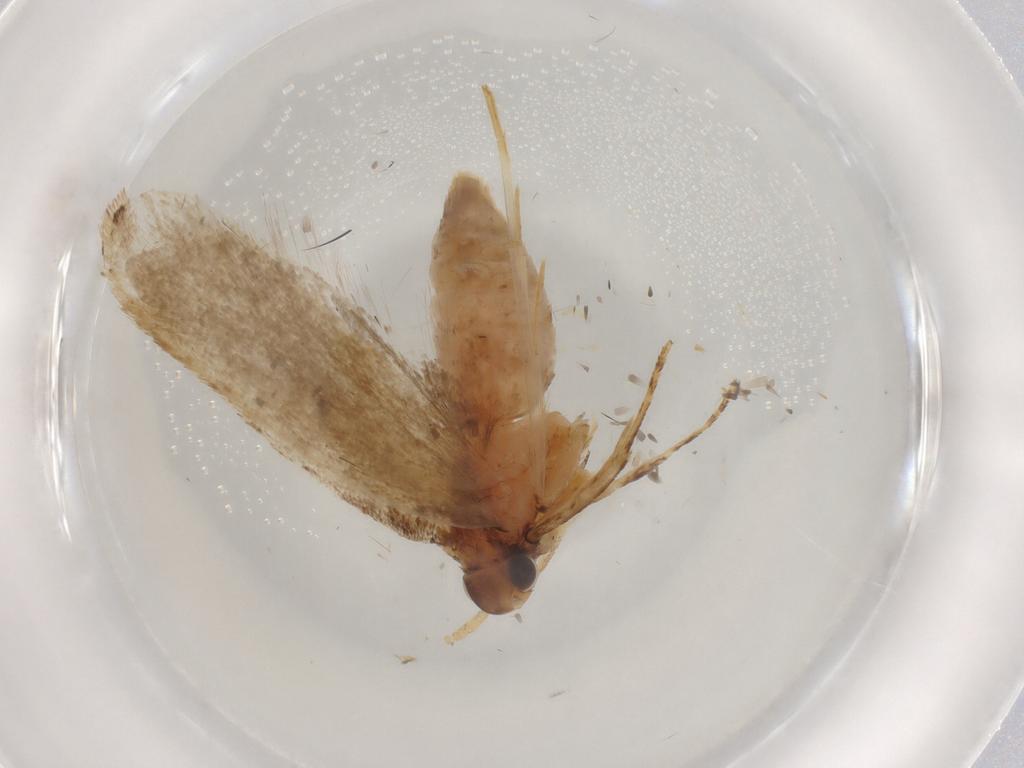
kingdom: Animalia
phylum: Arthropoda
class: Insecta
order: Lepidoptera
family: Lecithoceridae
